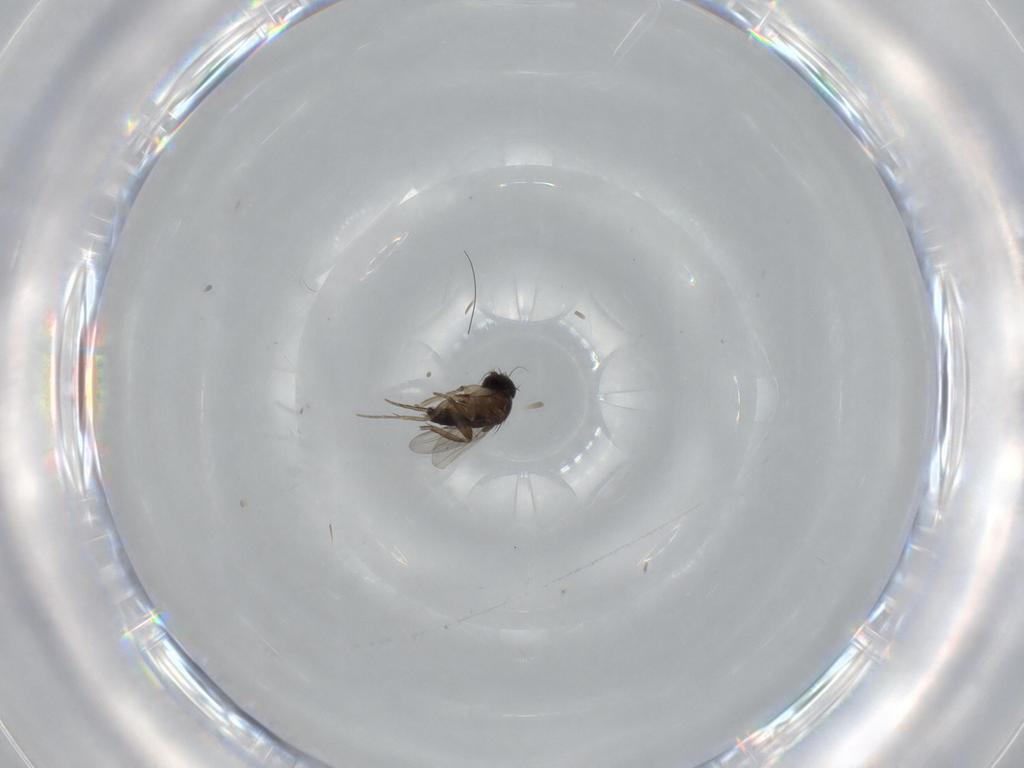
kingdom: Animalia
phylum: Arthropoda
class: Insecta
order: Diptera
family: Phoridae
